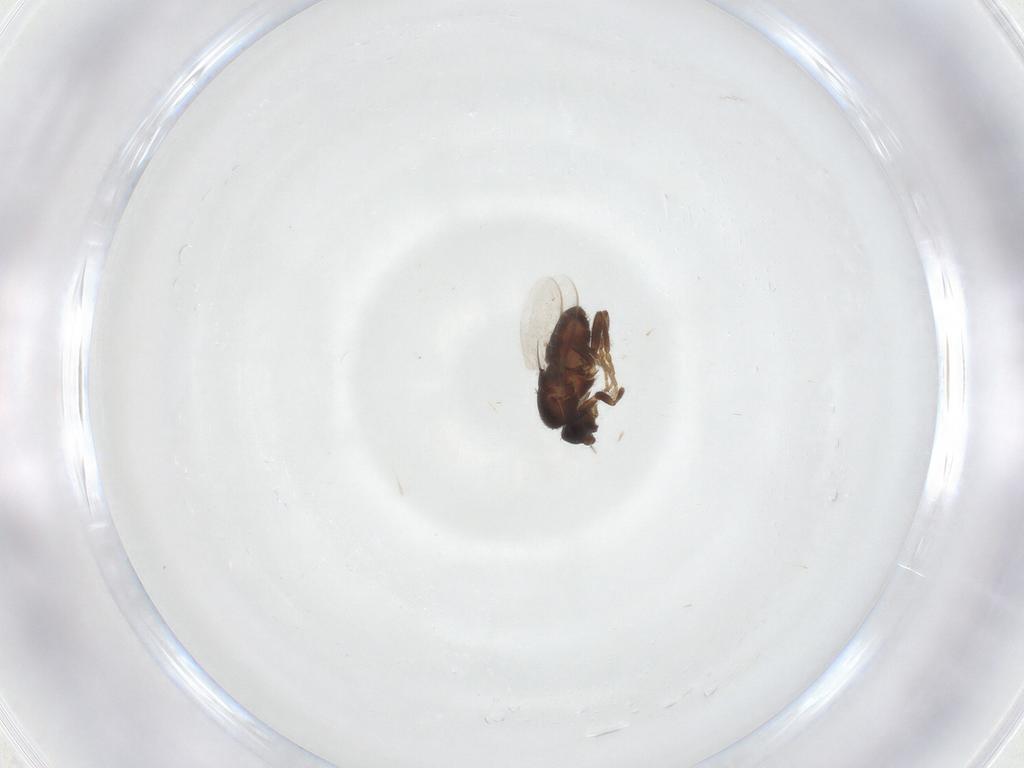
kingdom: Animalia
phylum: Arthropoda
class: Insecta
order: Diptera
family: Sphaeroceridae
